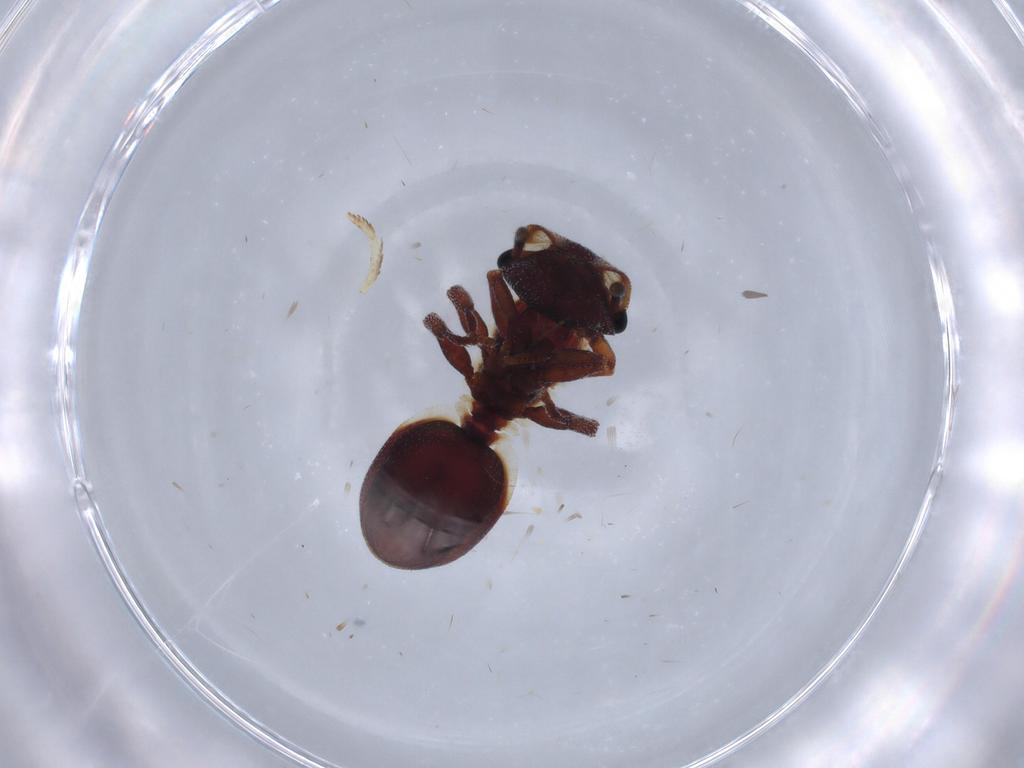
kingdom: Animalia
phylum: Arthropoda
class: Insecta
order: Hymenoptera
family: Formicidae
